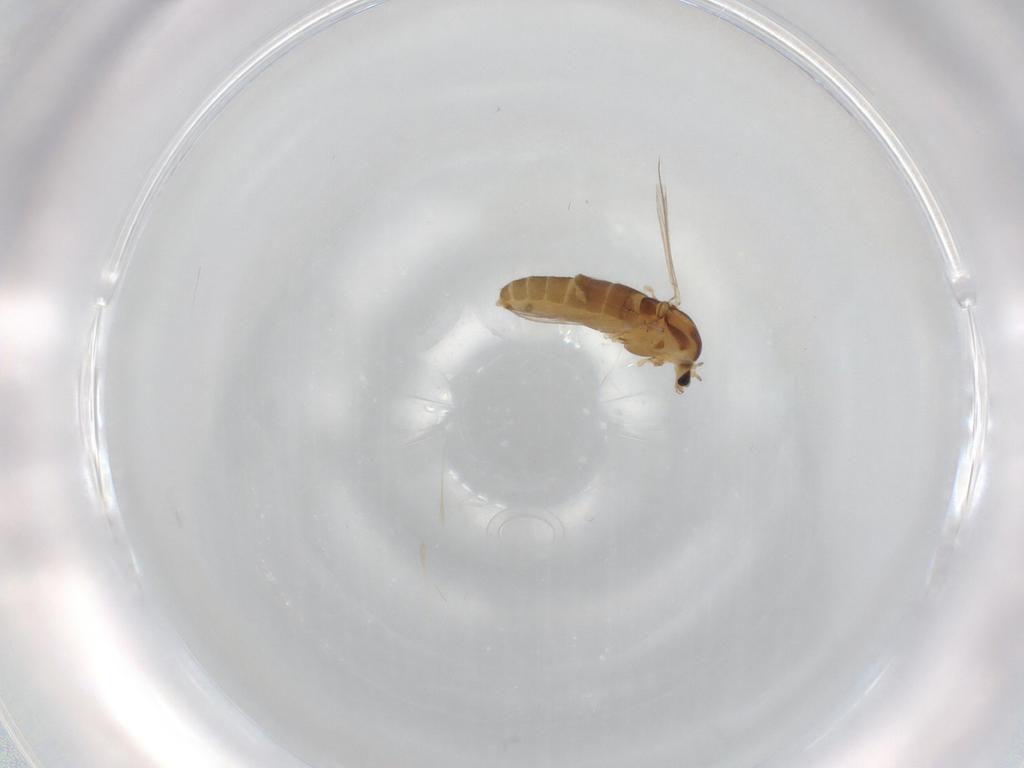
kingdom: Animalia
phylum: Arthropoda
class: Insecta
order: Diptera
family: Chironomidae
